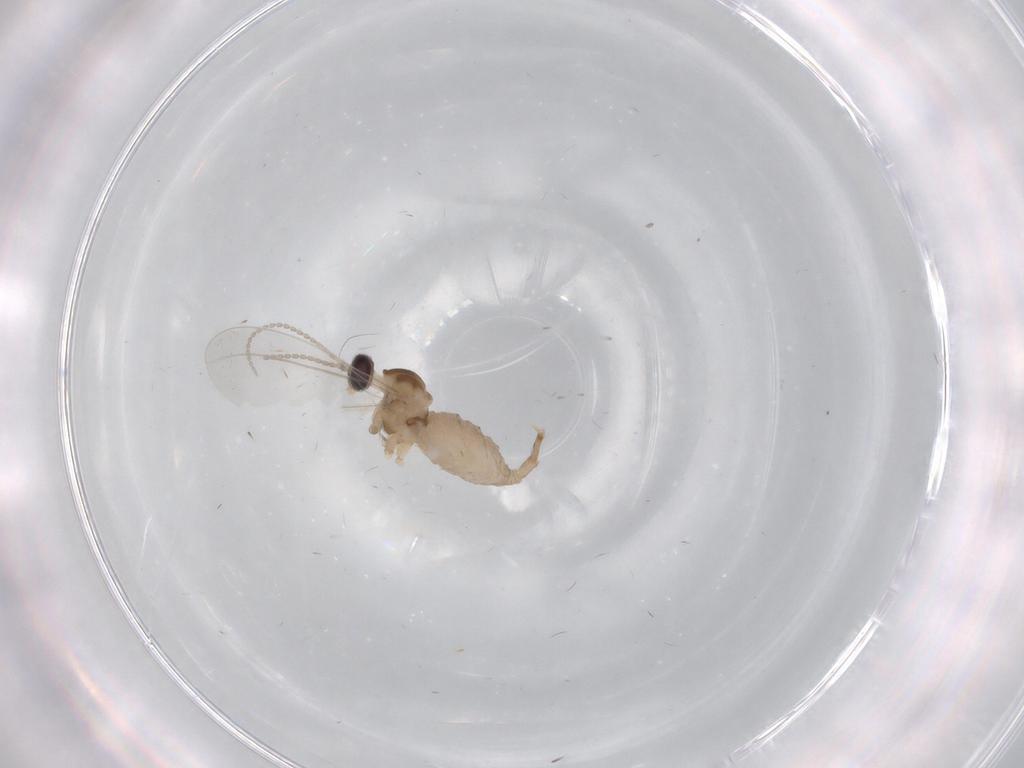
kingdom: Animalia
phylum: Arthropoda
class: Insecta
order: Diptera
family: Cecidomyiidae
